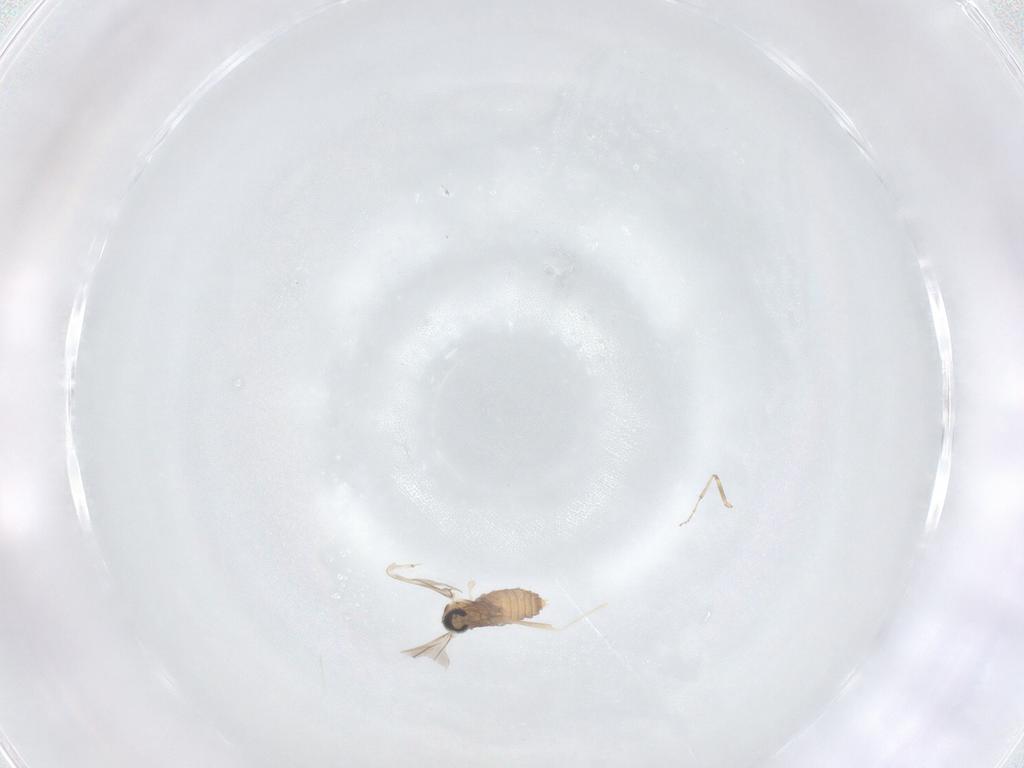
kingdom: Animalia
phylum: Arthropoda
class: Insecta
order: Diptera
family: Cecidomyiidae
